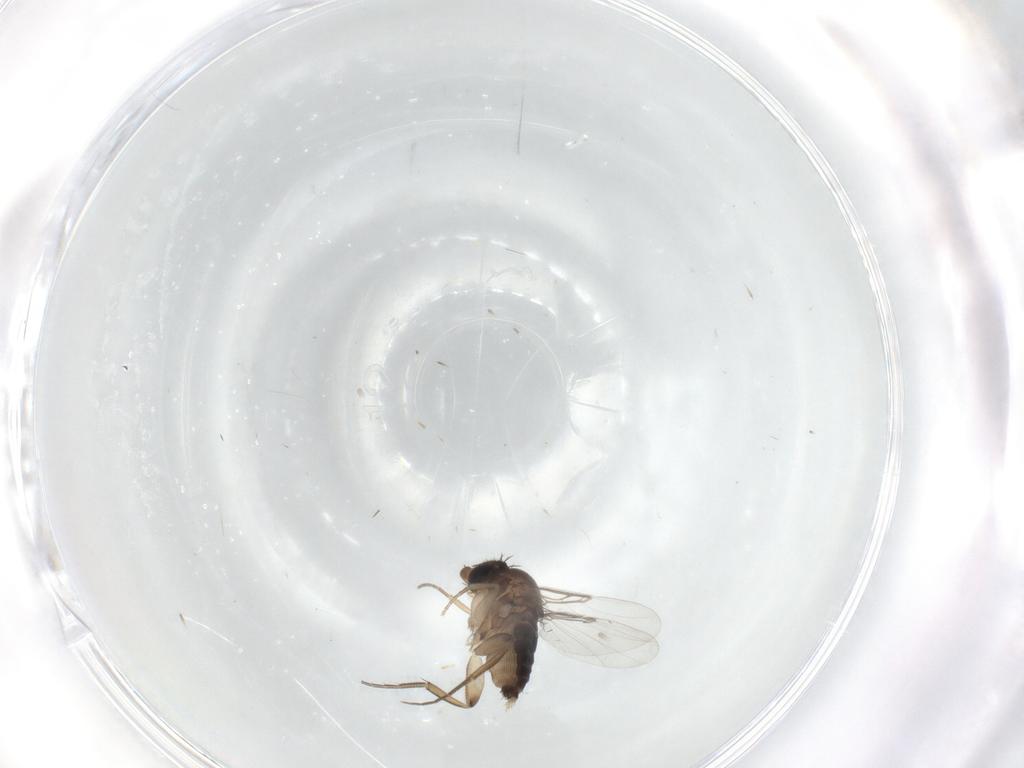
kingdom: Animalia
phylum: Arthropoda
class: Insecta
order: Diptera
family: Phoridae
